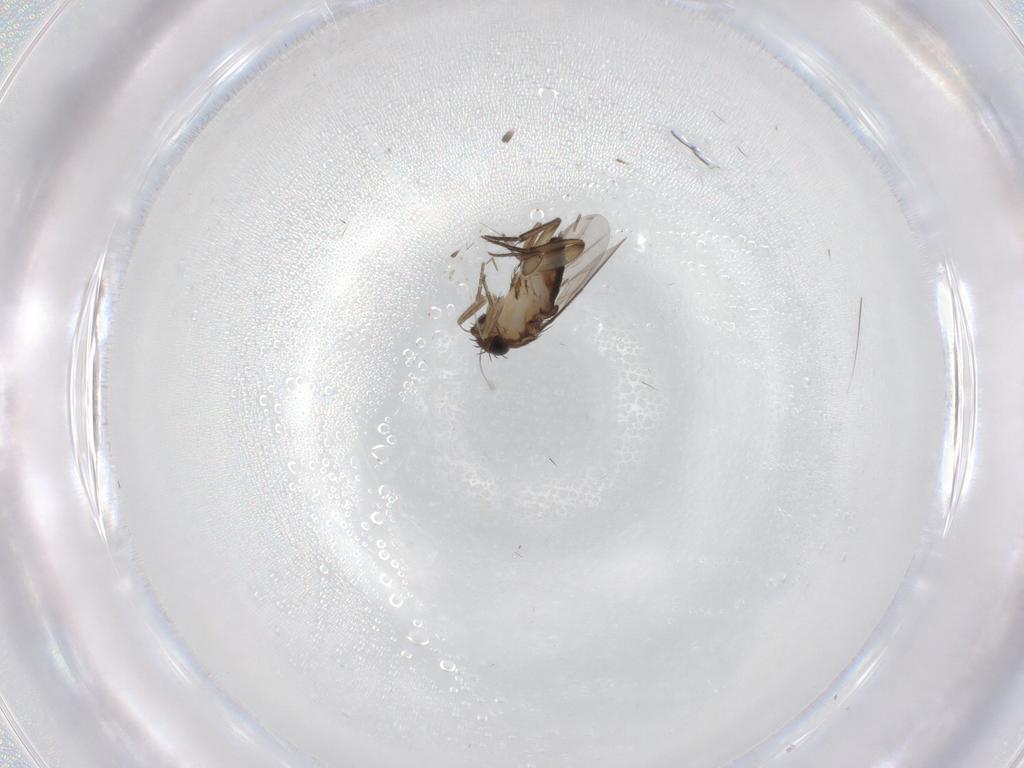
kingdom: Animalia
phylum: Arthropoda
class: Insecta
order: Diptera
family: Phoridae
